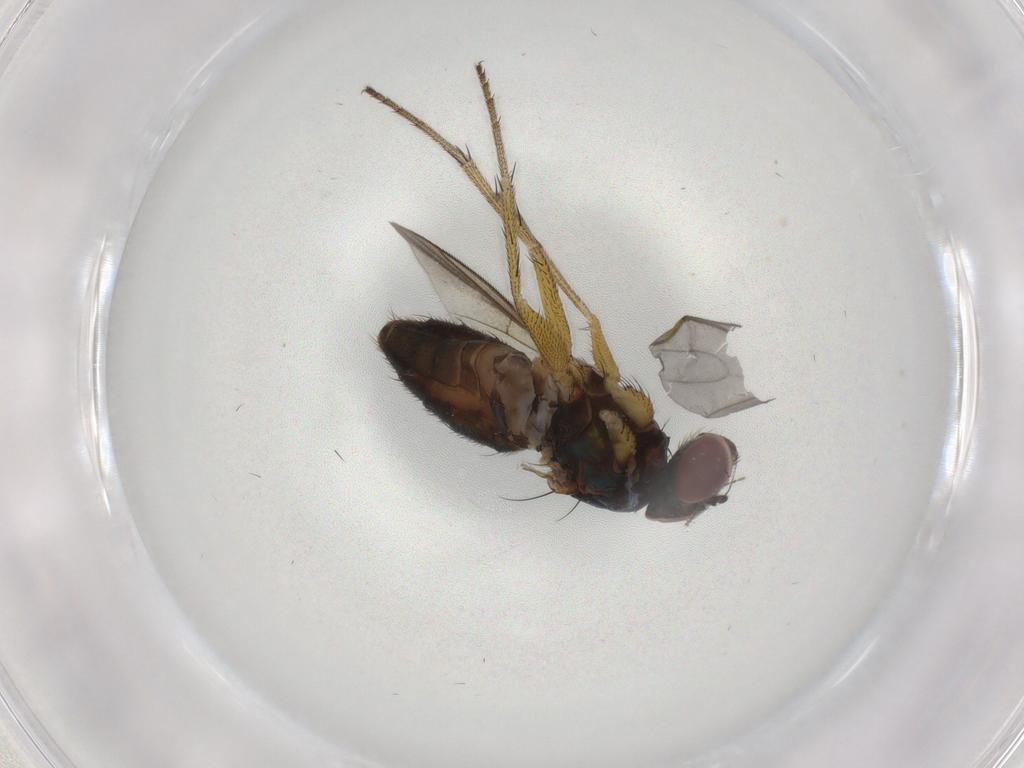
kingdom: Animalia
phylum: Arthropoda
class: Insecta
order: Diptera
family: Dolichopodidae
